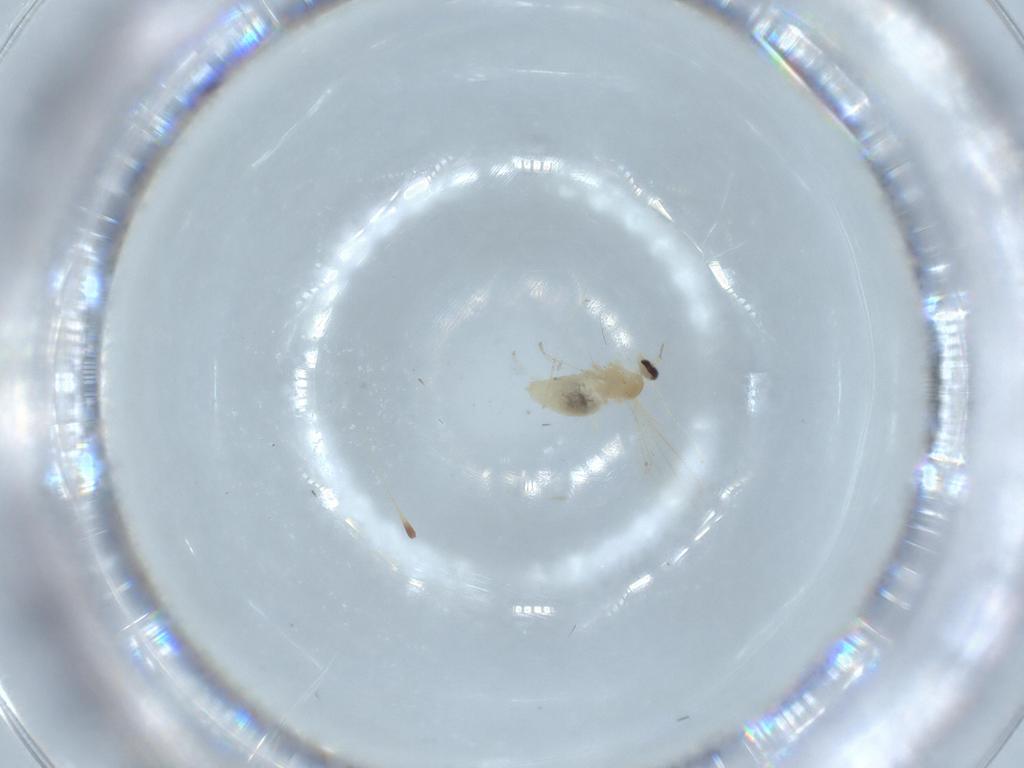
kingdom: Animalia
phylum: Arthropoda
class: Insecta
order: Diptera
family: Cecidomyiidae
